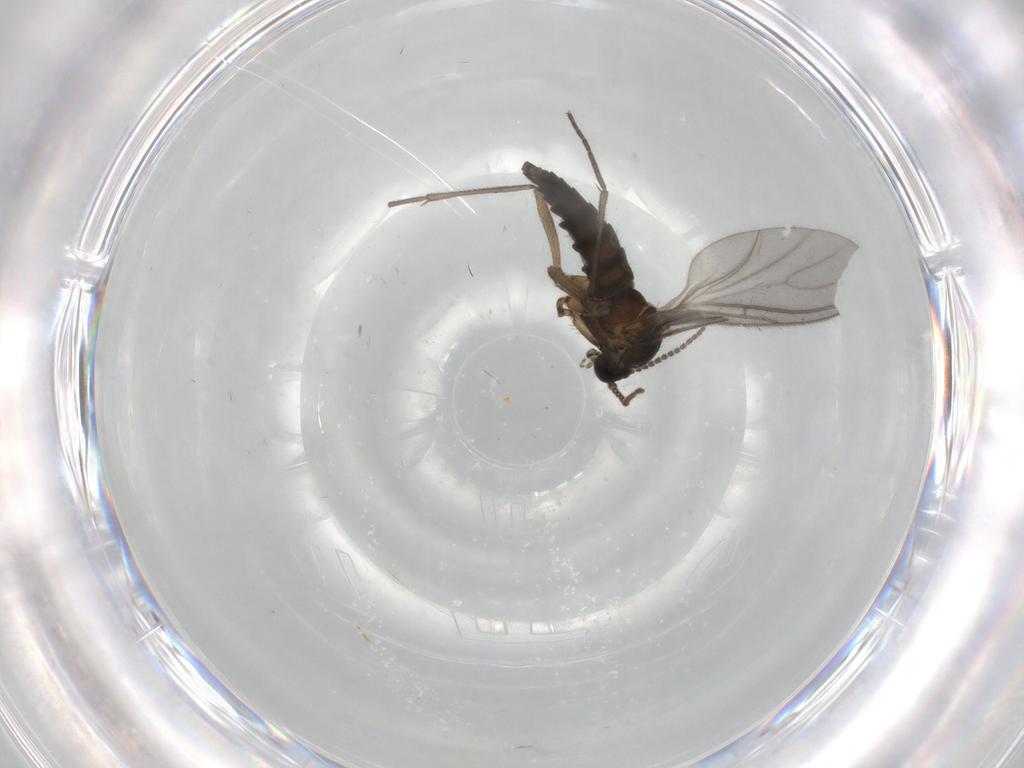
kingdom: Animalia
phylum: Arthropoda
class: Insecta
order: Diptera
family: Sciaridae
